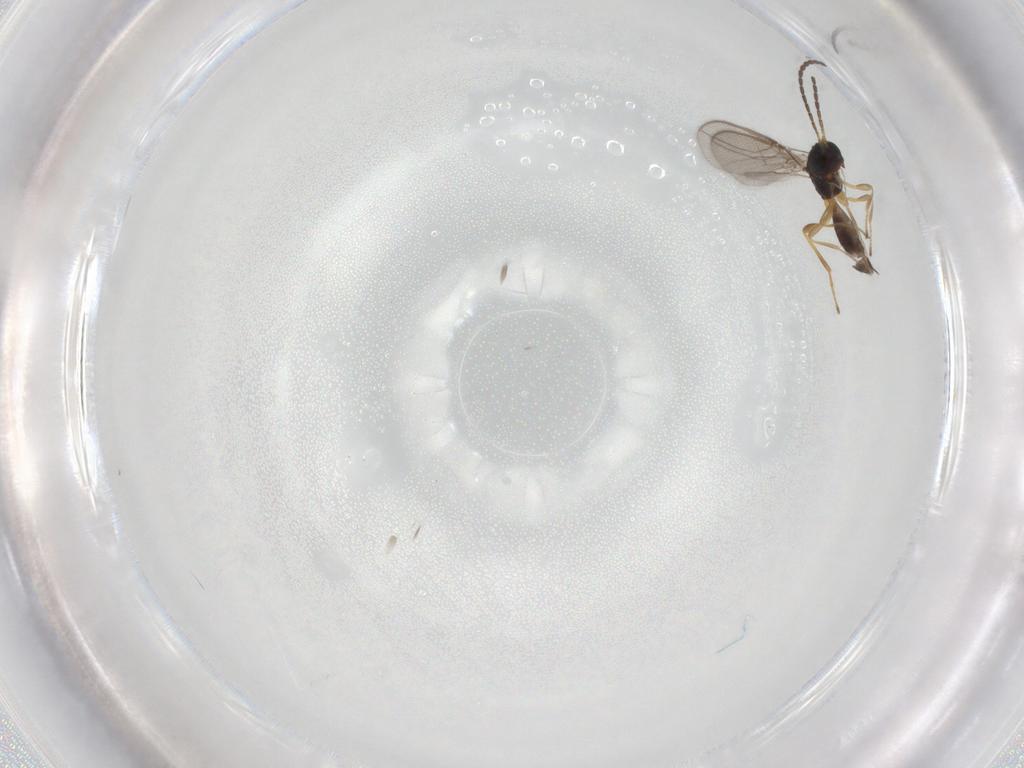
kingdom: Animalia
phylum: Arthropoda
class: Insecta
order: Hymenoptera
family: Braconidae
